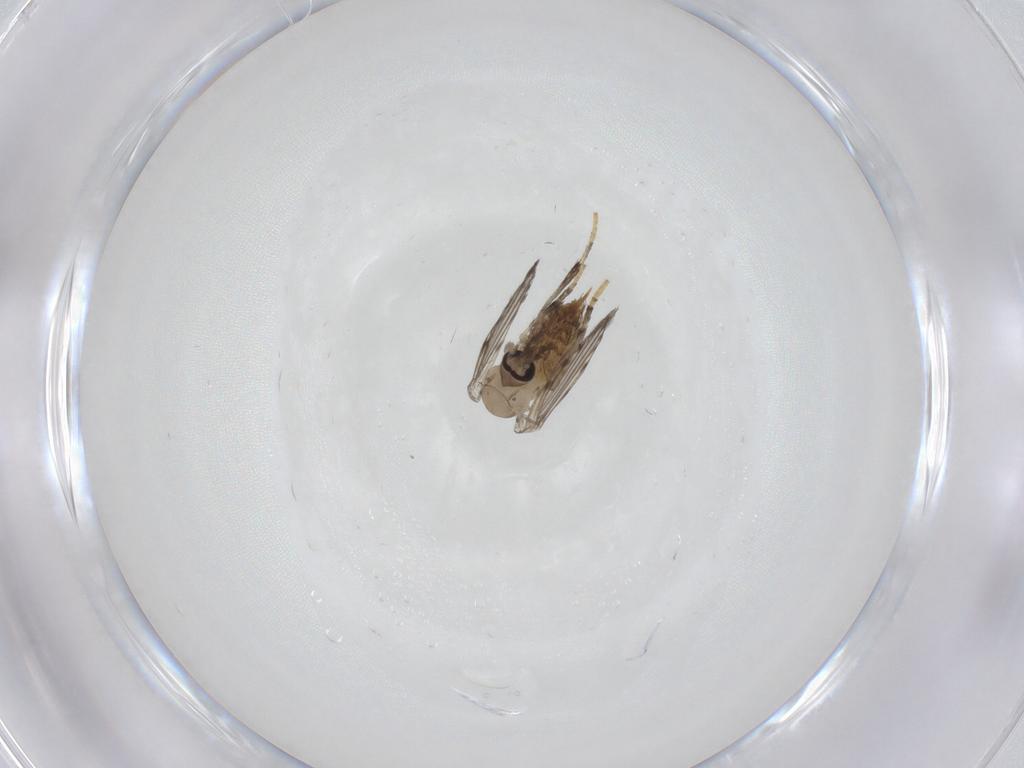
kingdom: Animalia
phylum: Arthropoda
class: Insecta
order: Diptera
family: Psychodidae
